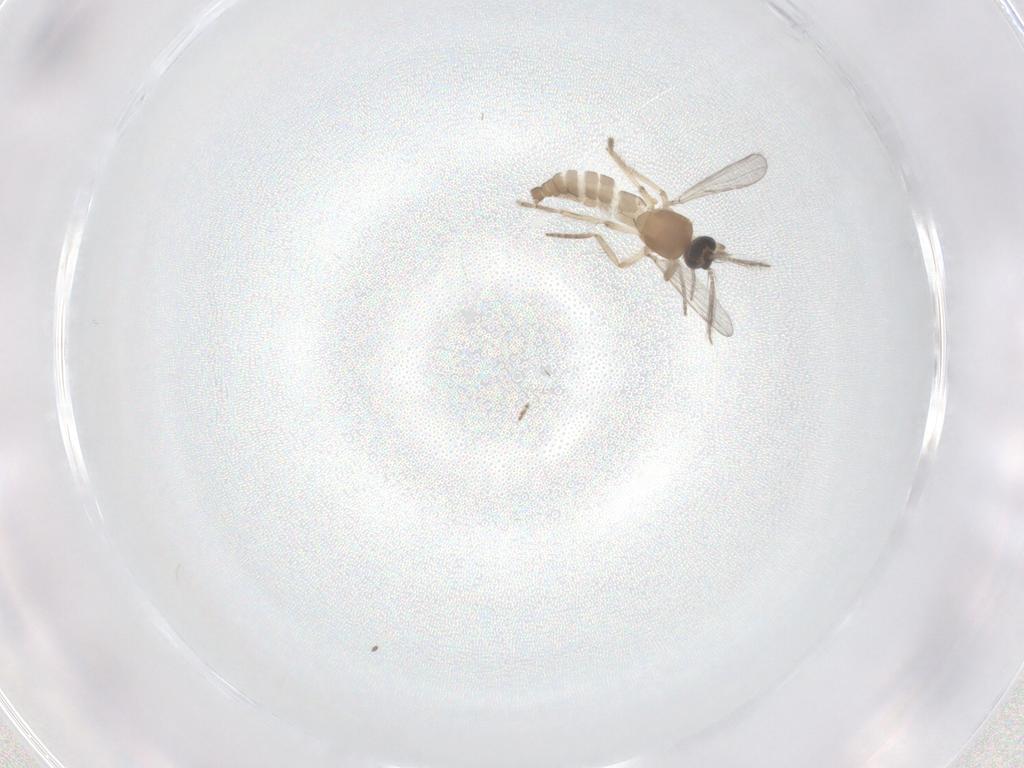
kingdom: Animalia
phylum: Arthropoda
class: Insecta
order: Diptera
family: Ceratopogonidae
